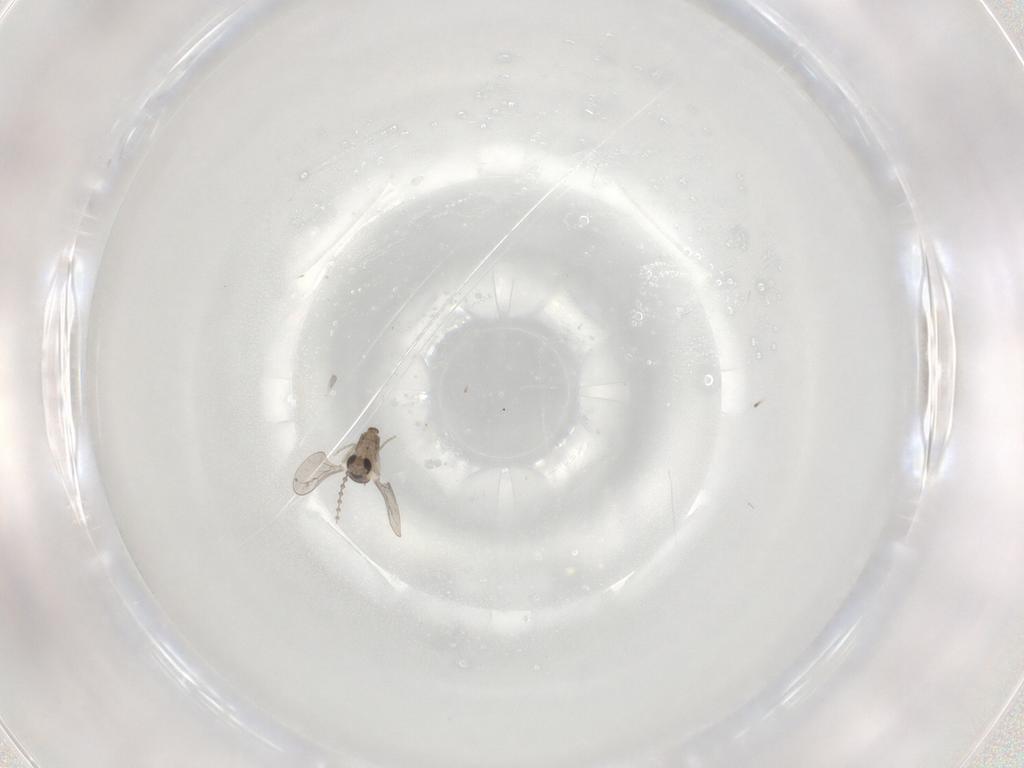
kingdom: Animalia
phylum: Arthropoda
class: Insecta
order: Diptera
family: Cecidomyiidae
